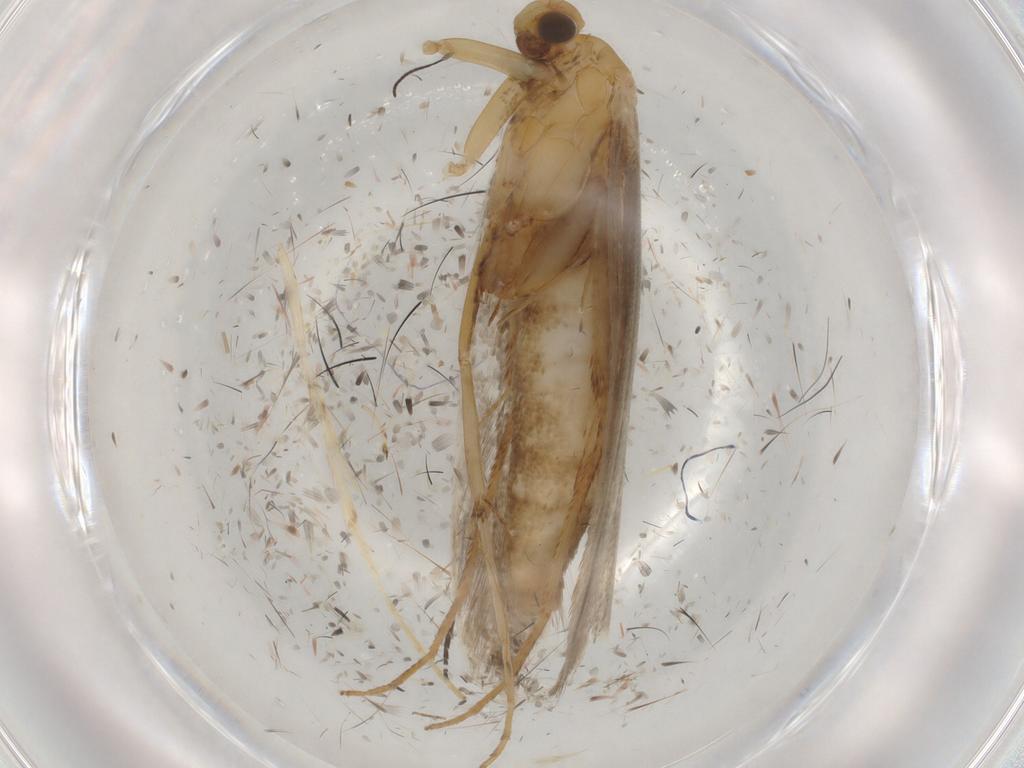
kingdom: Animalia
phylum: Arthropoda
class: Insecta
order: Lepidoptera
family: Gracillariidae
